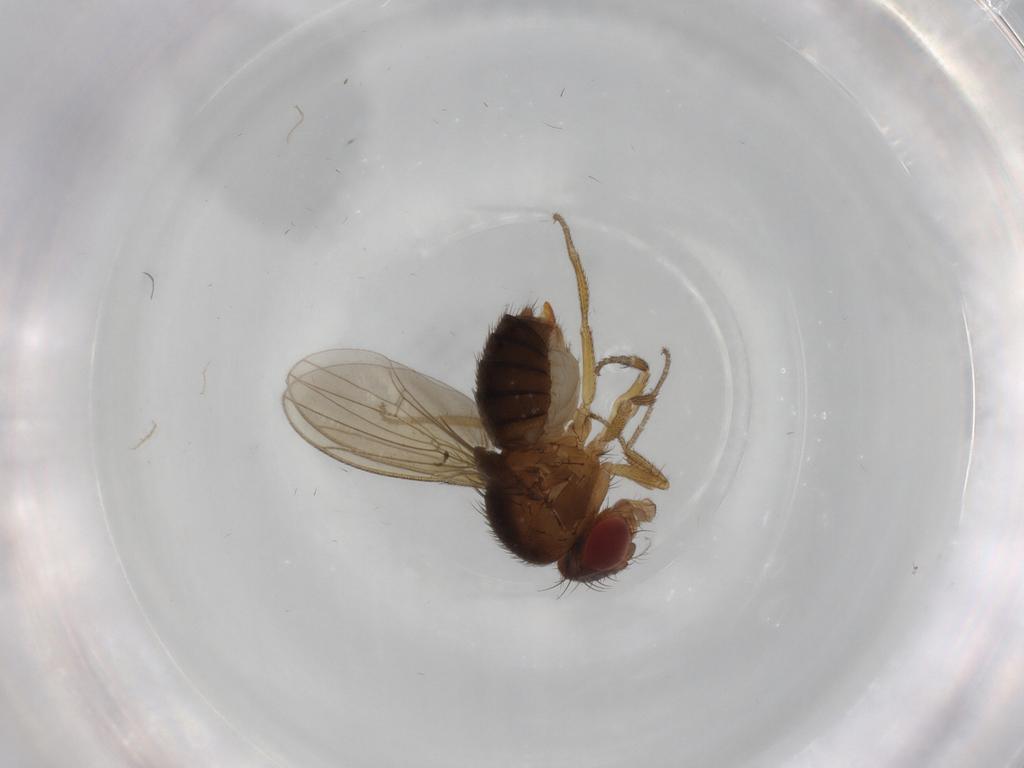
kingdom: Animalia
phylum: Arthropoda
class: Insecta
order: Diptera
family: Drosophilidae
